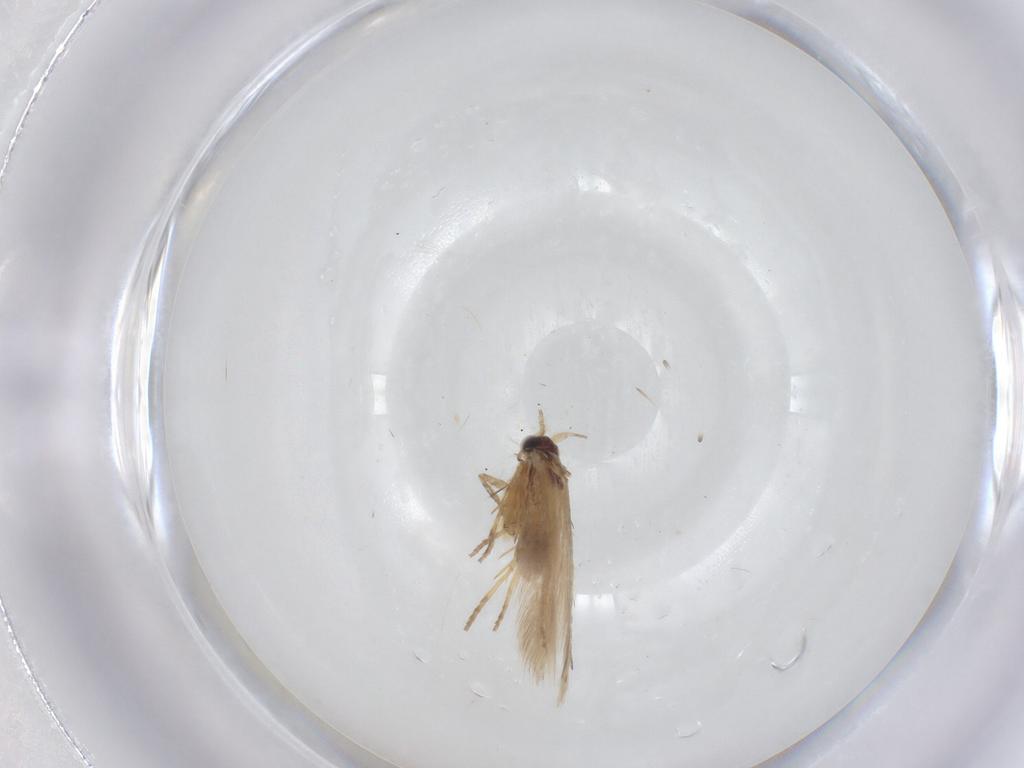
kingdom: Animalia
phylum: Arthropoda
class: Insecta
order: Lepidoptera
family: Nepticulidae
